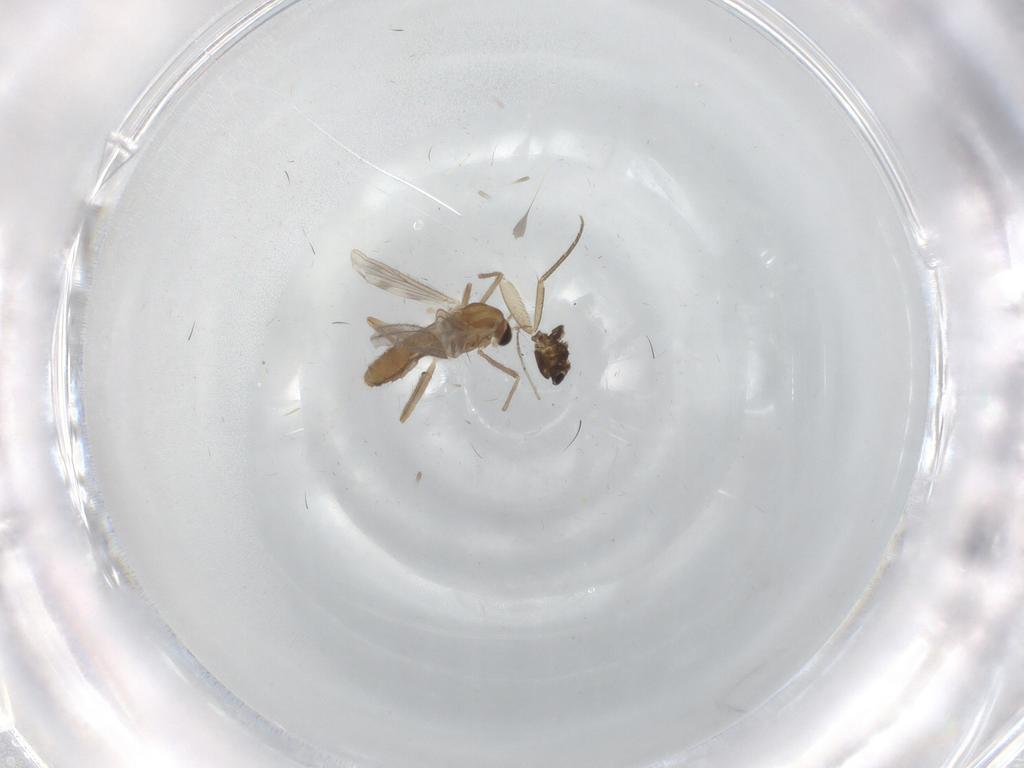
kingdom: Animalia
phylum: Arthropoda
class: Insecta
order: Diptera
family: Chironomidae
